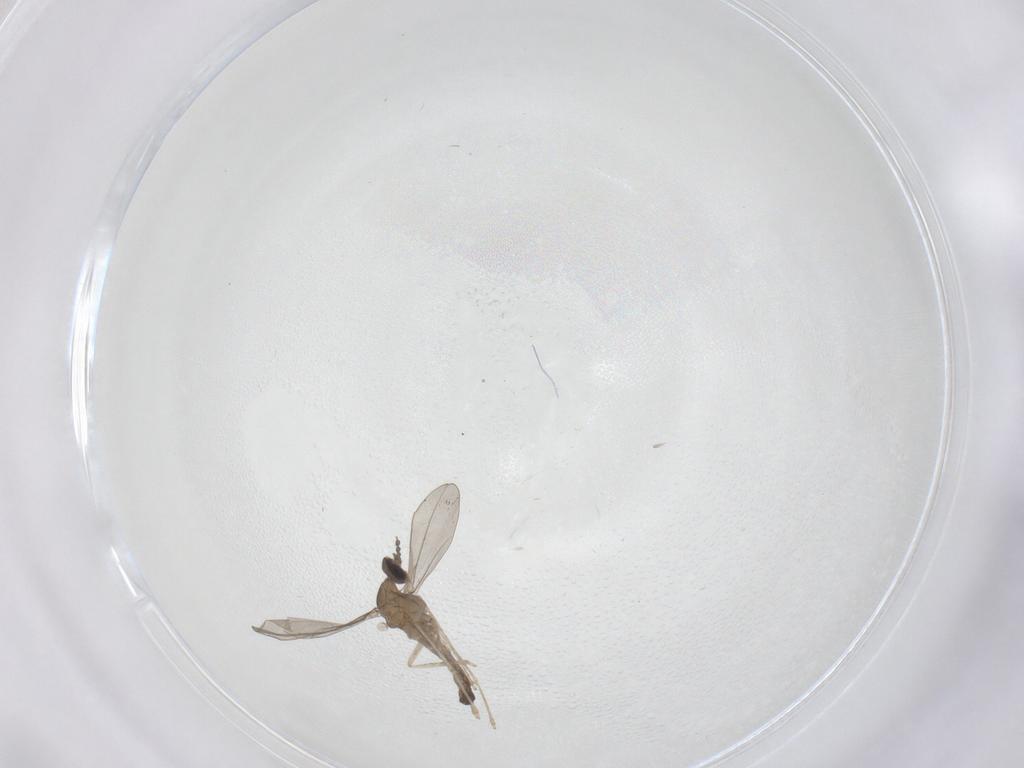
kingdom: Animalia
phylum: Arthropoda
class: Insecta
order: Diptera
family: Cecidomyiidae
